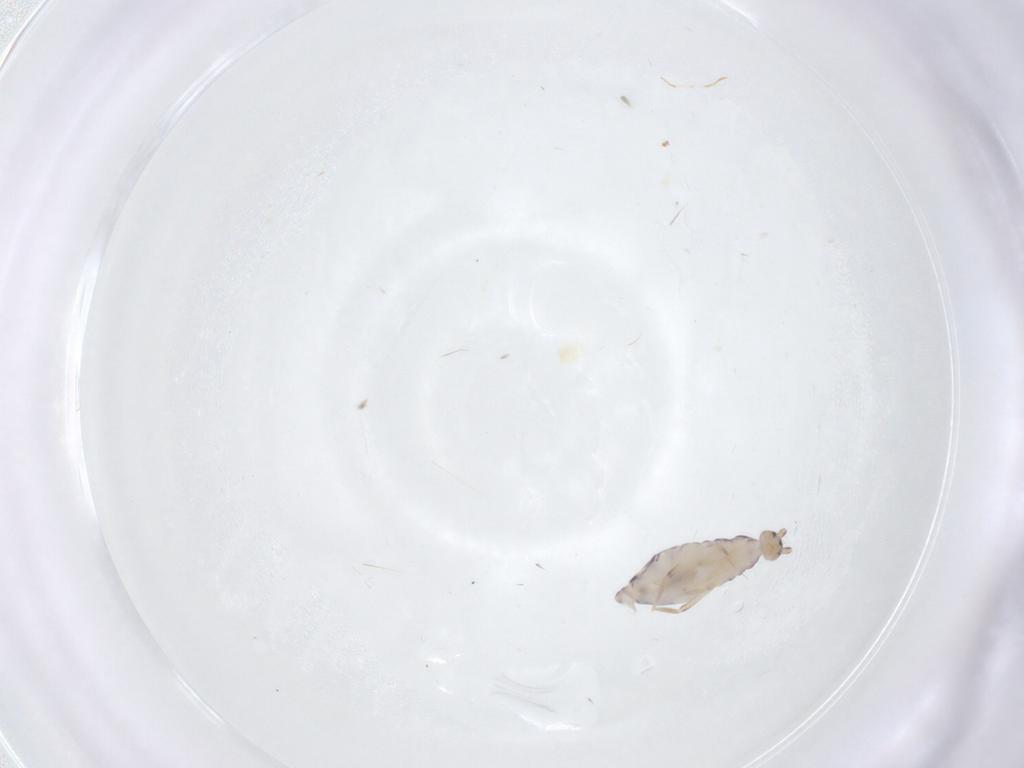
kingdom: Animalia
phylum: Arthropoda
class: Collembola
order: Entomobryomorpha
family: Entomobryidae
